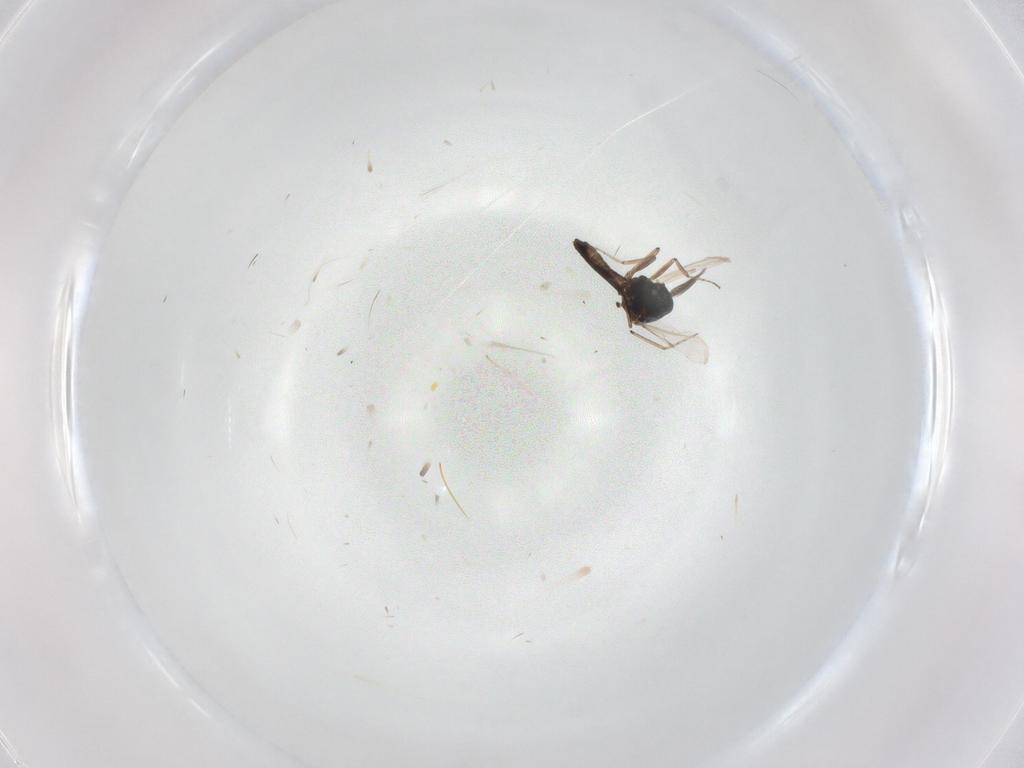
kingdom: Animalia
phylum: Arthropoda
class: Insecta
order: Diptera
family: Ceratopogonidae
